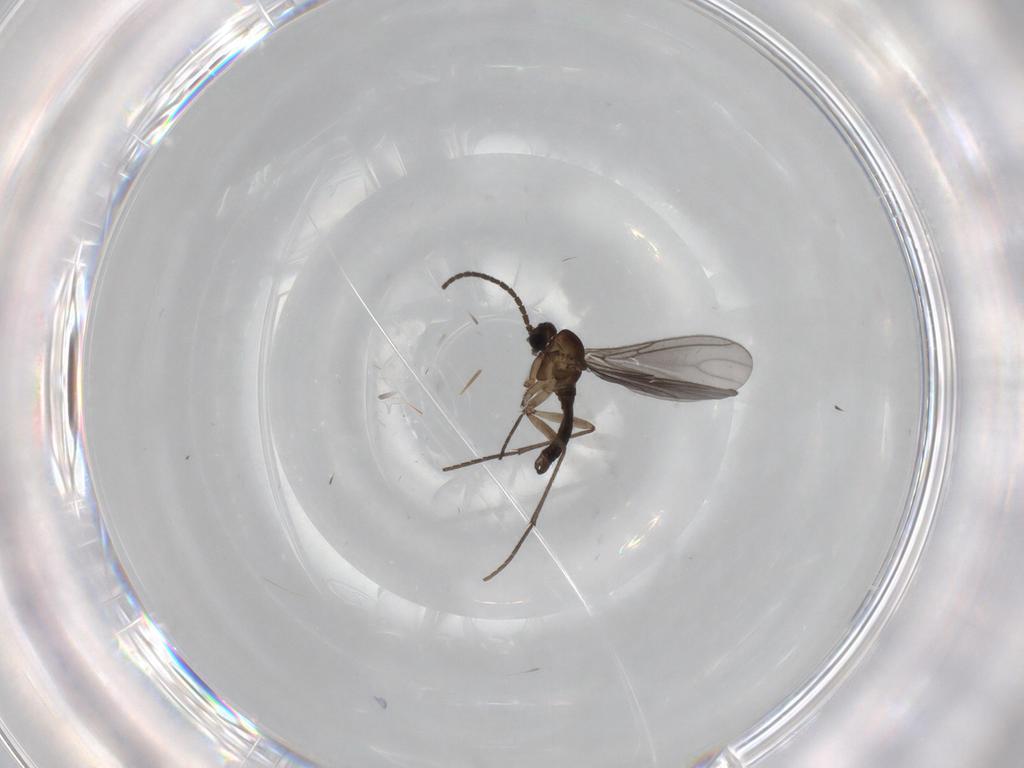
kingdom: Animalia
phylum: Arthropoda
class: Insecta
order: Diptera
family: Sciaridae
